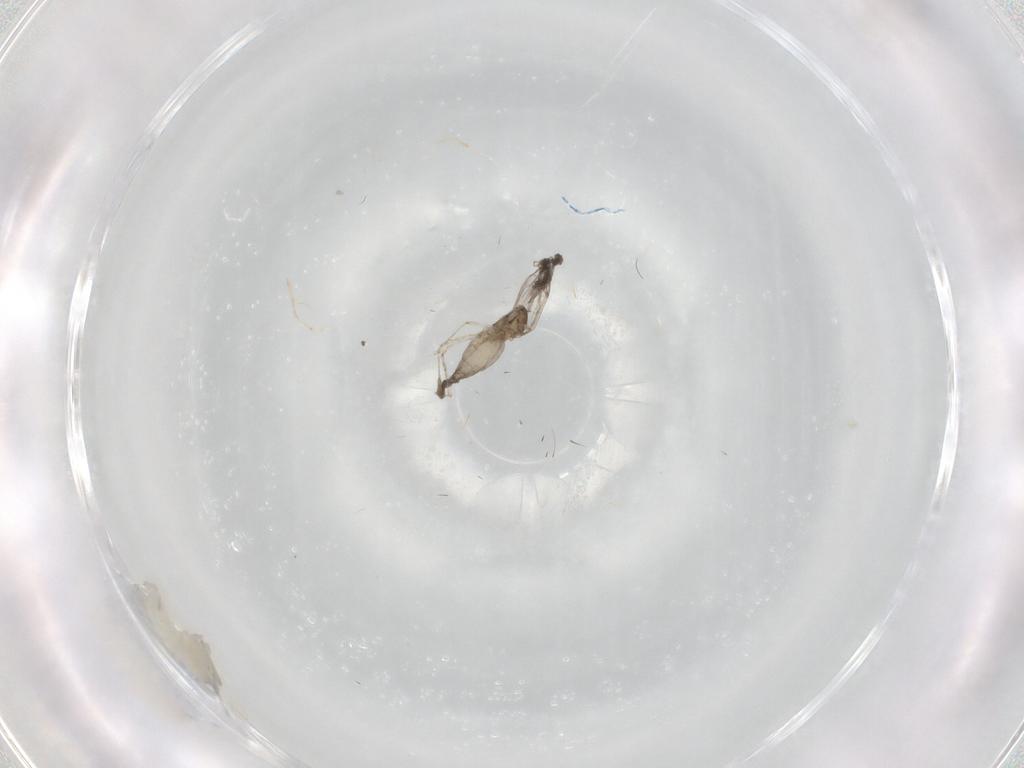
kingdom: Animalia
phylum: Arthropoda
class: Insecta
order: Diptera
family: Cecidomyiidae
